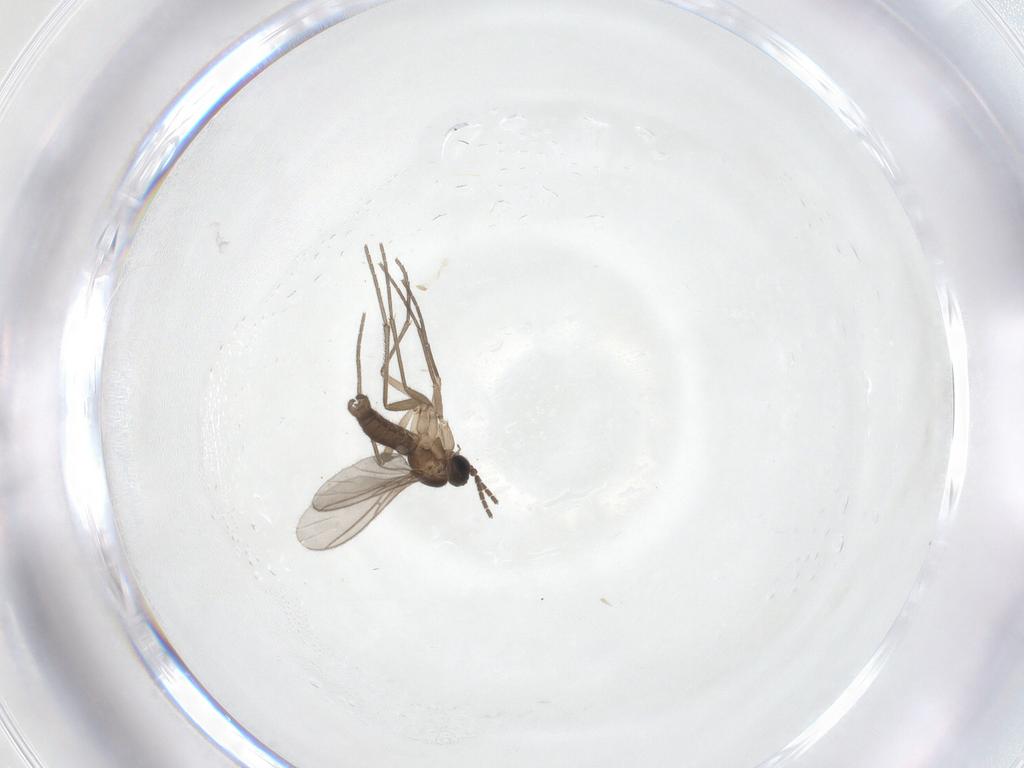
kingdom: Animalia
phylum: Arthropoda
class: Insecta
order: Diptera
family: Sciaridae
